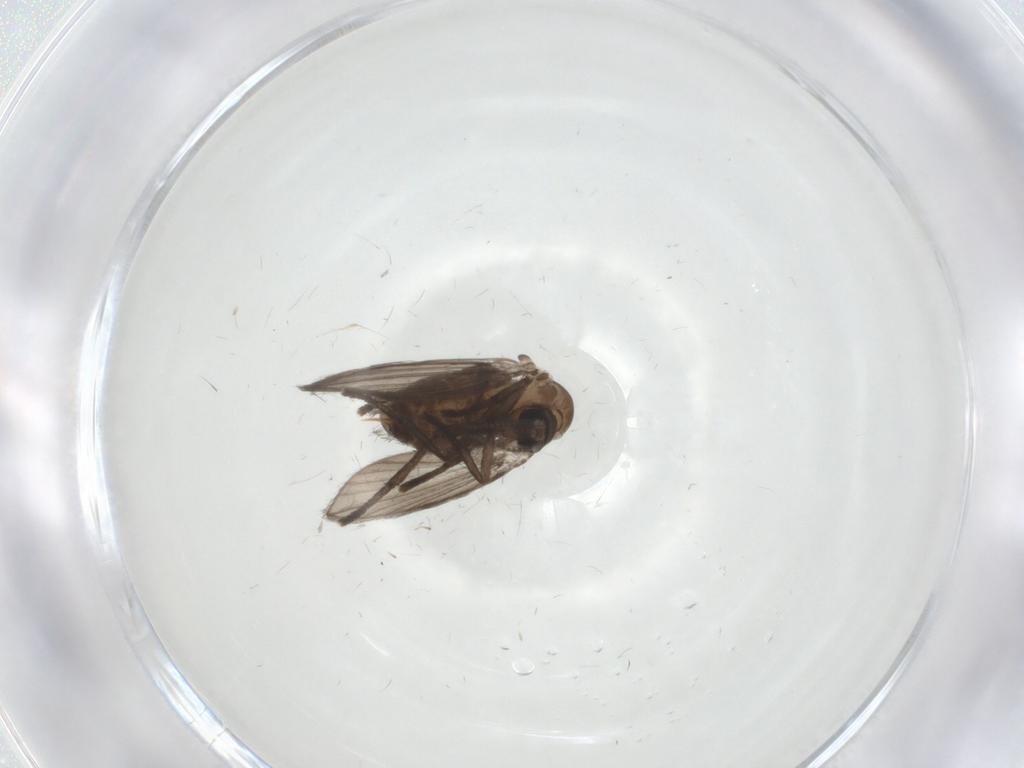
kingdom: Animalia
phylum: Arthropoda
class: Insecta
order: Diptera
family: Psychodidae
